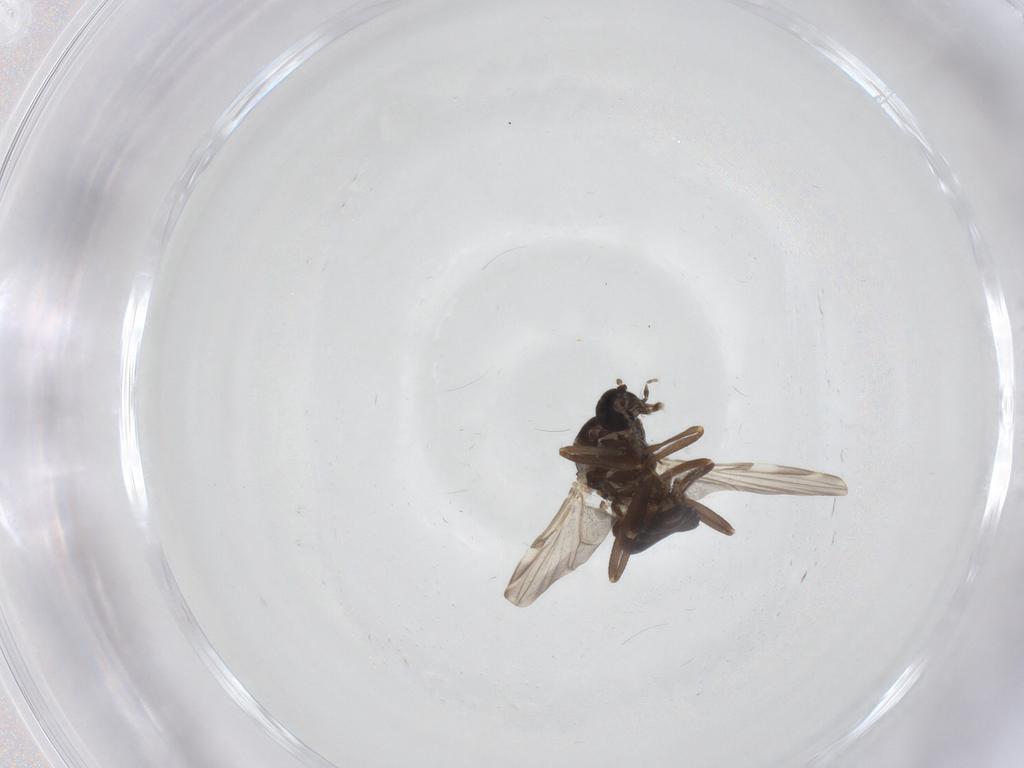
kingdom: Animalia
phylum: Arthropoda
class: Insecta
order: Diptera
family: Ceratopogonidae
